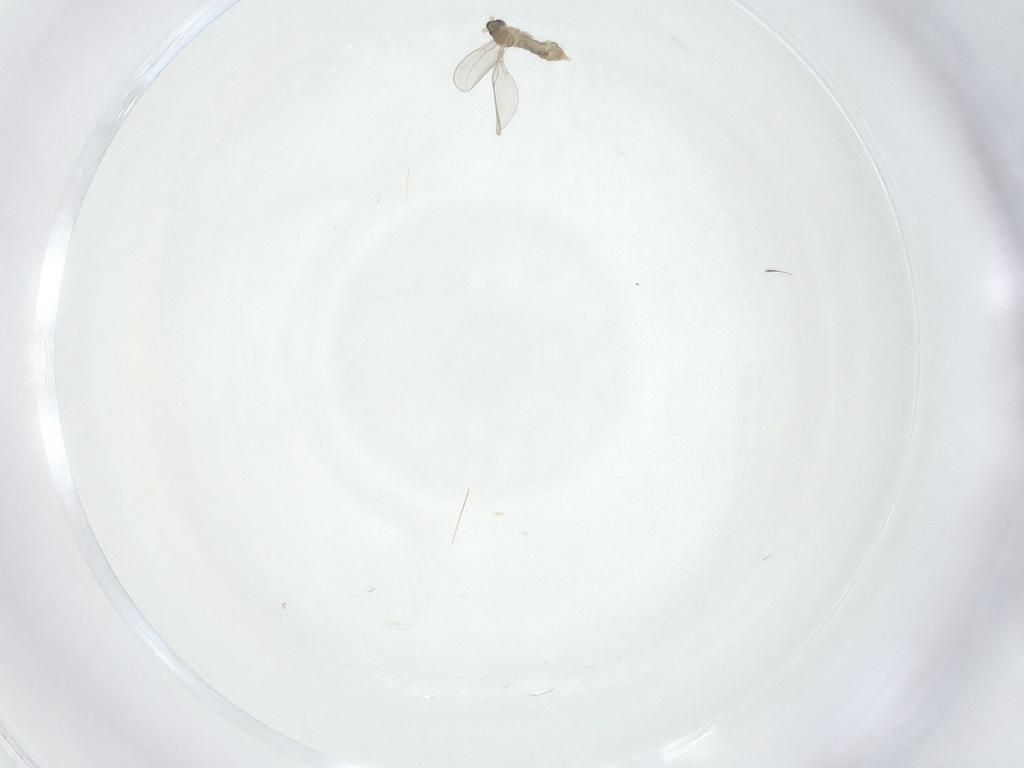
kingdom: Animalia
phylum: Arthropoda
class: Insecta
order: Diptera
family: Cecidomyiidae
